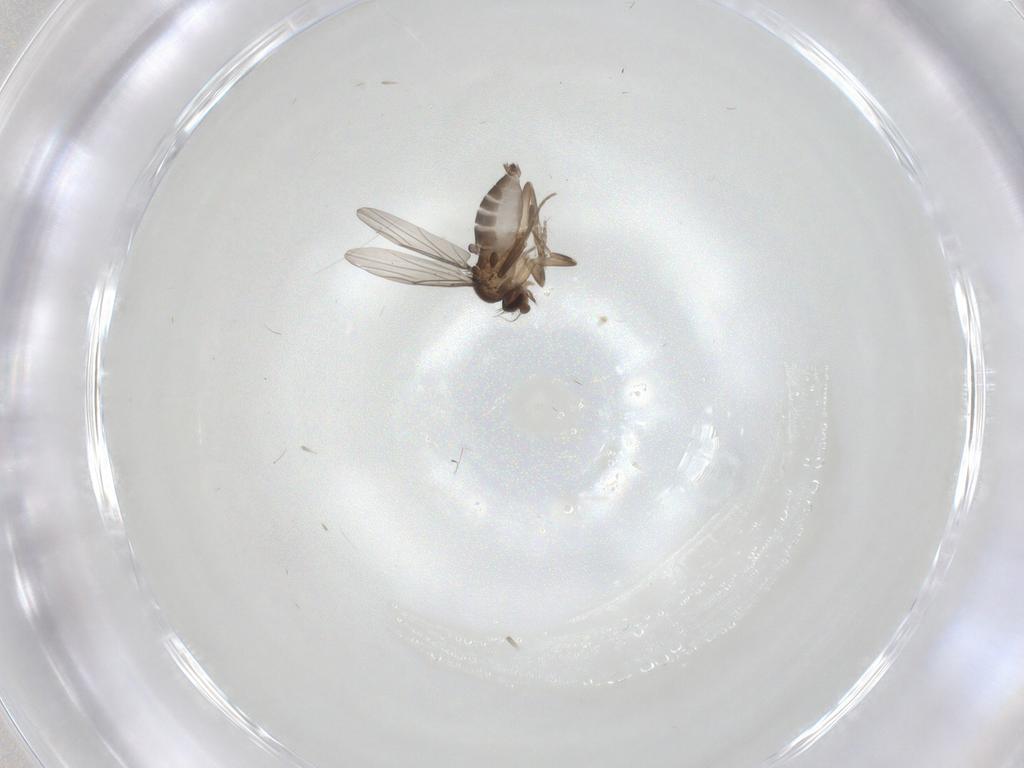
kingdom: Animalia
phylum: Arthropoda
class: Insecta
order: Diptera
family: Phoridae
